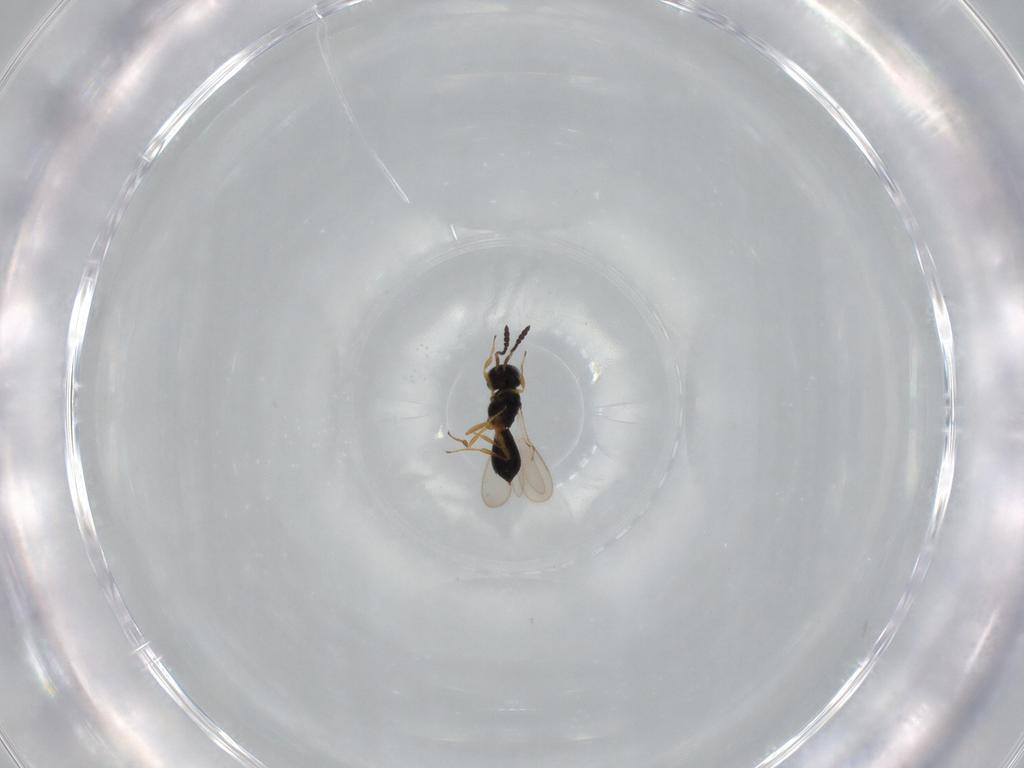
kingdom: Animalia
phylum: Arthropoda
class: Insecta
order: Hymenoptera
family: Scelionidae
